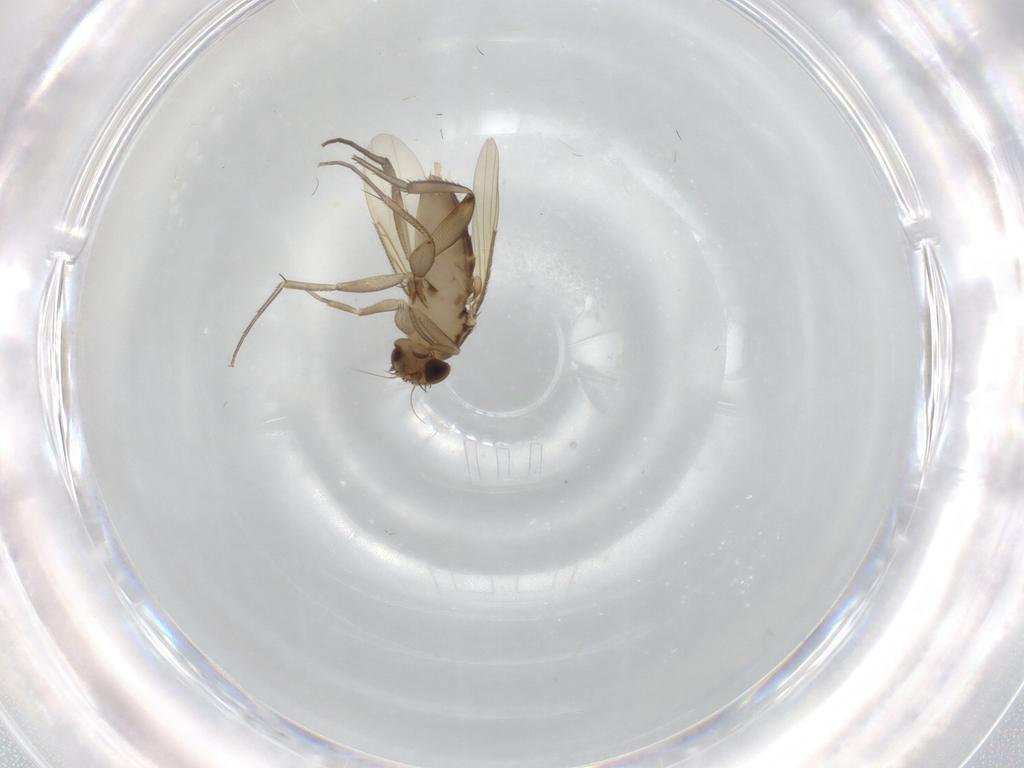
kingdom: Animalia
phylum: Arthropoda
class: Insecta
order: Diptera
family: Phoridae
